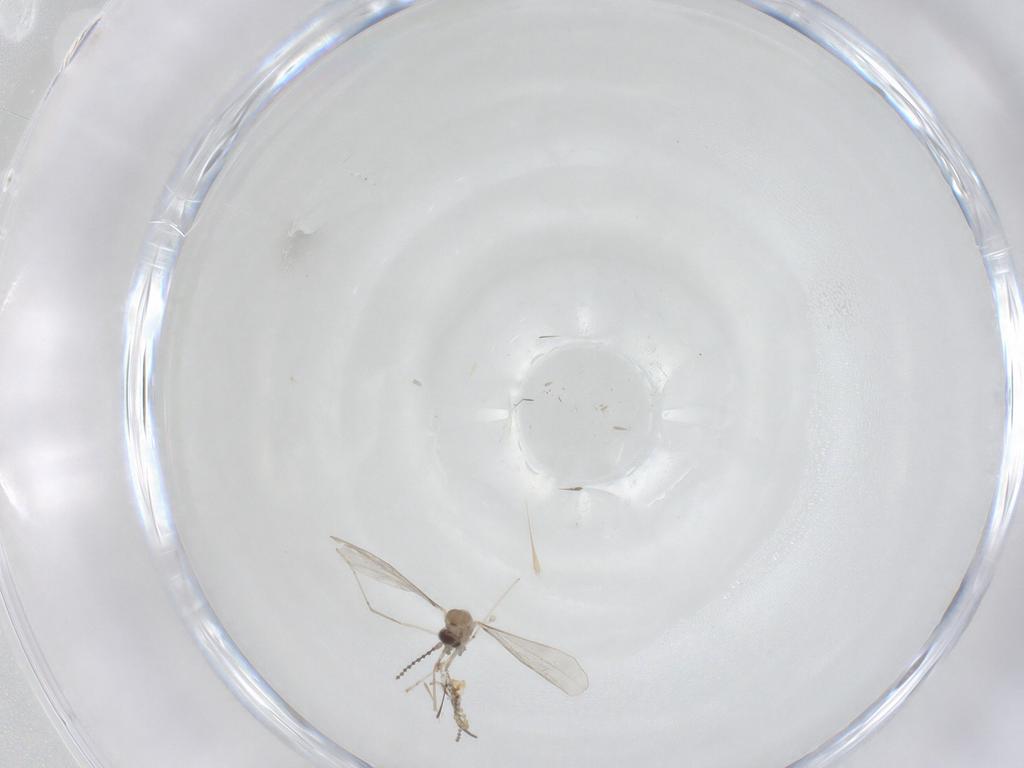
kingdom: Animalia
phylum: Arthropoda
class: Insecta
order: Diptera
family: Cecidomyiidae
